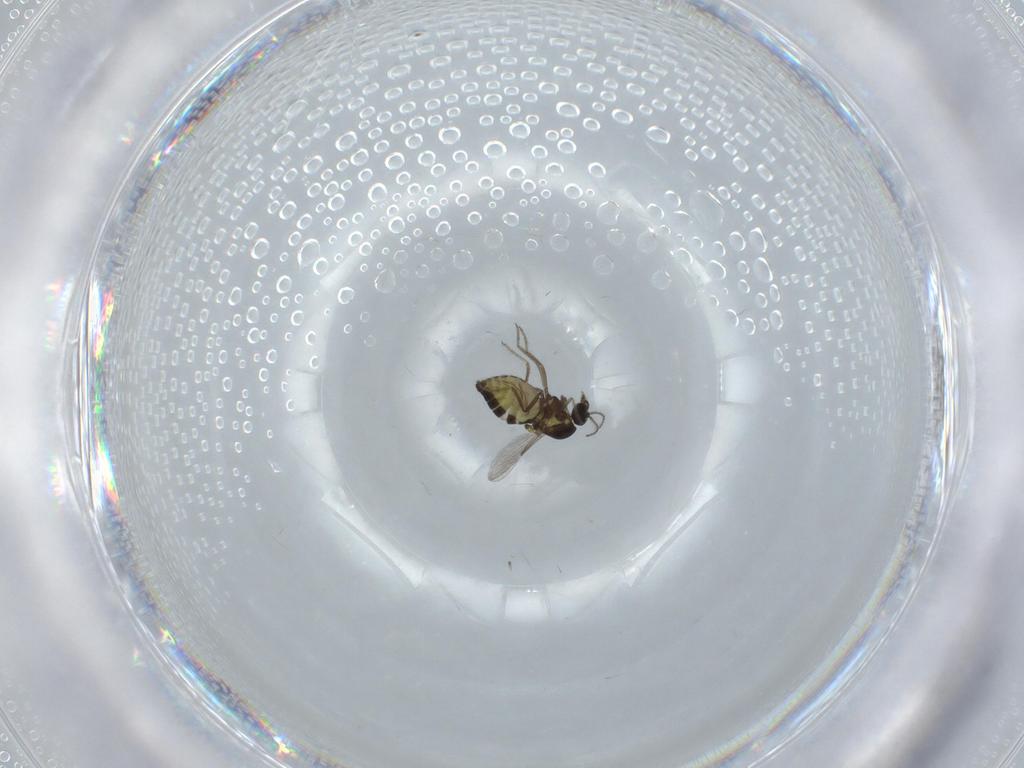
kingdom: Animalia
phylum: Arthropoda
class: Insecta
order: Diptera
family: Ceratopogonidae
